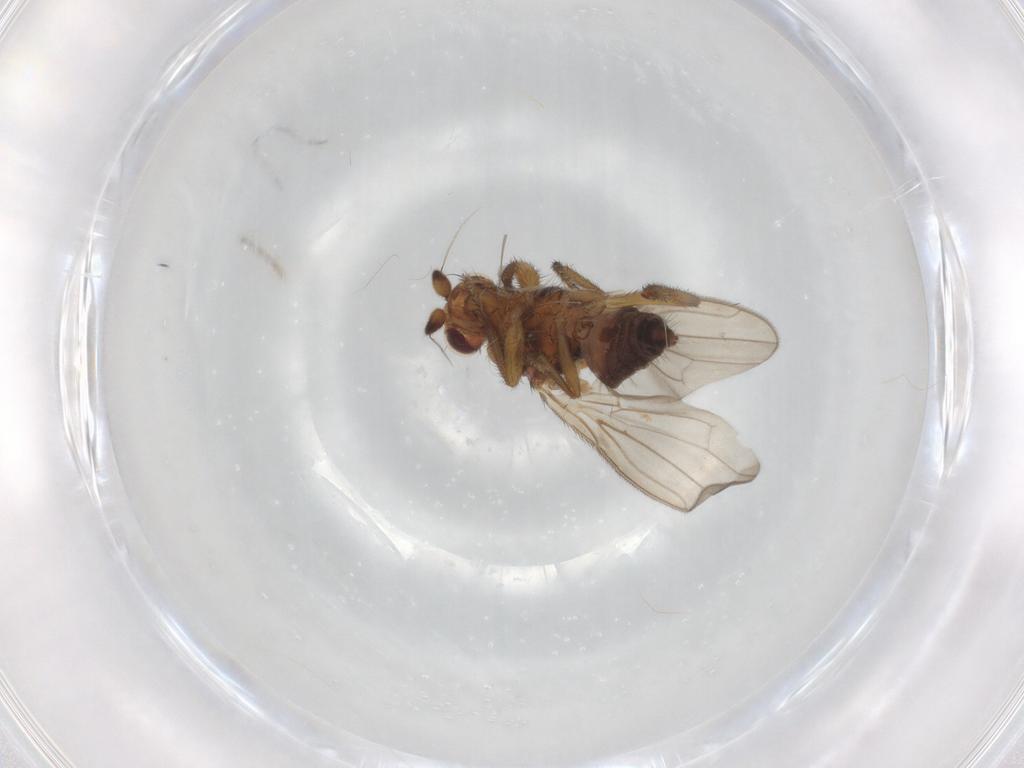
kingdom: Animalia
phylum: Arthropoda
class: Insecta
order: Diptera
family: Sphaeroceridae
